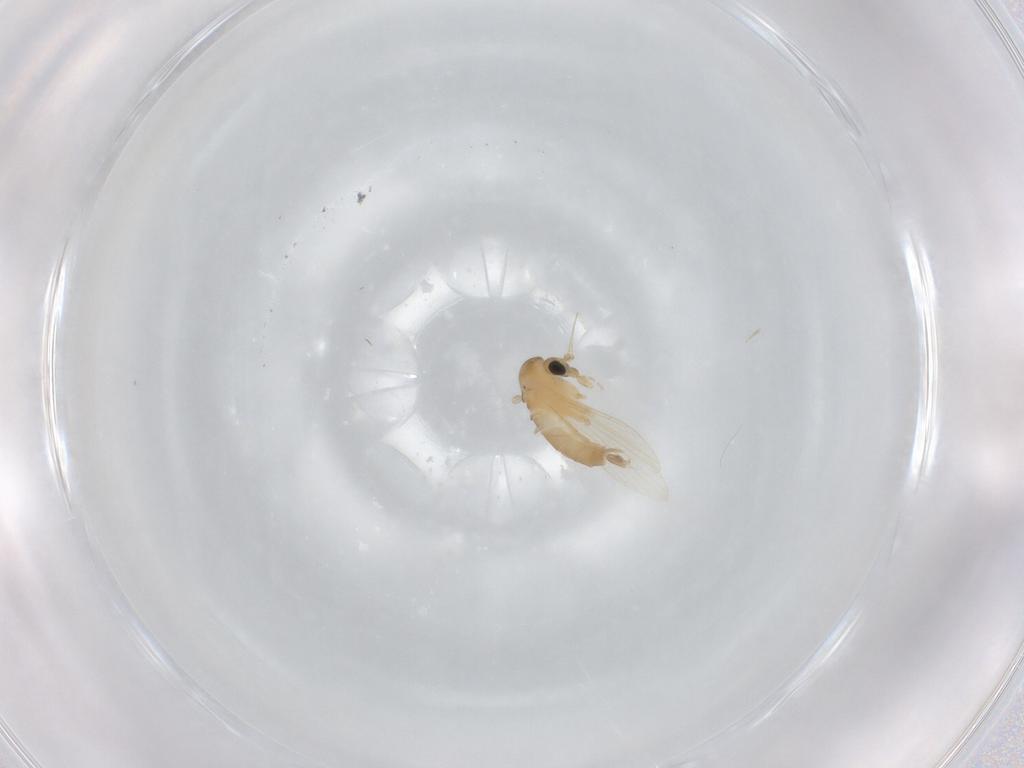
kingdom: Animalia
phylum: Arthropoda
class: Insecta
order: Diptera
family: Psychodidae
